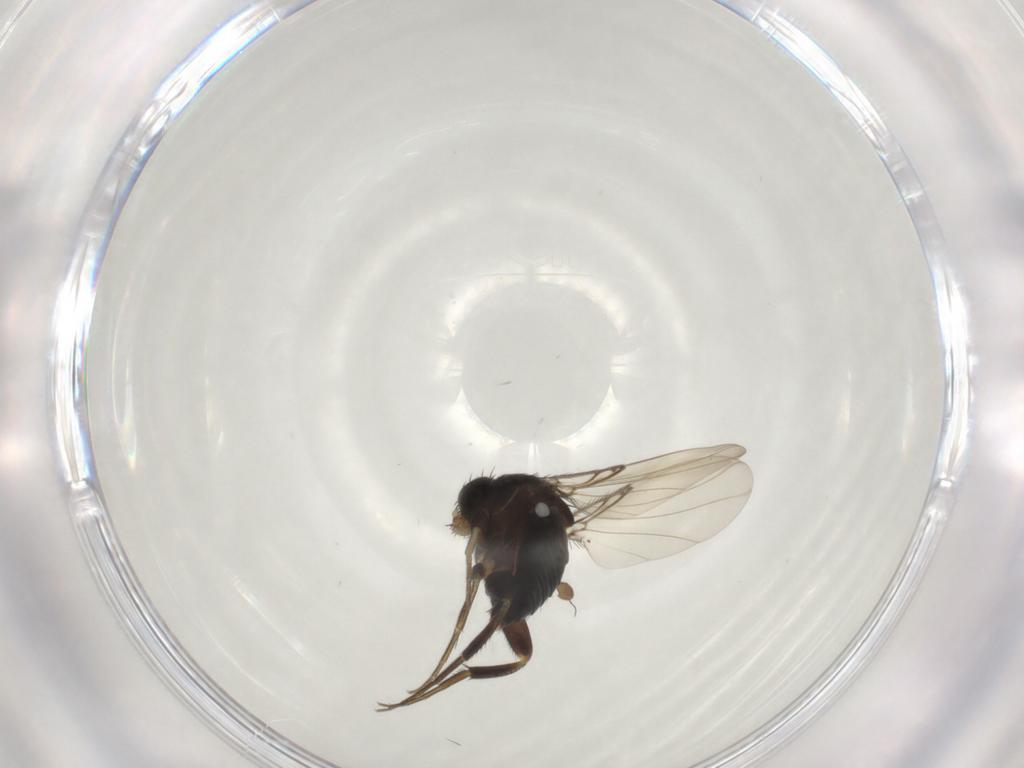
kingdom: Animalia
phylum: Arthropoda
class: Insecta
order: Diptera
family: Phoridae
